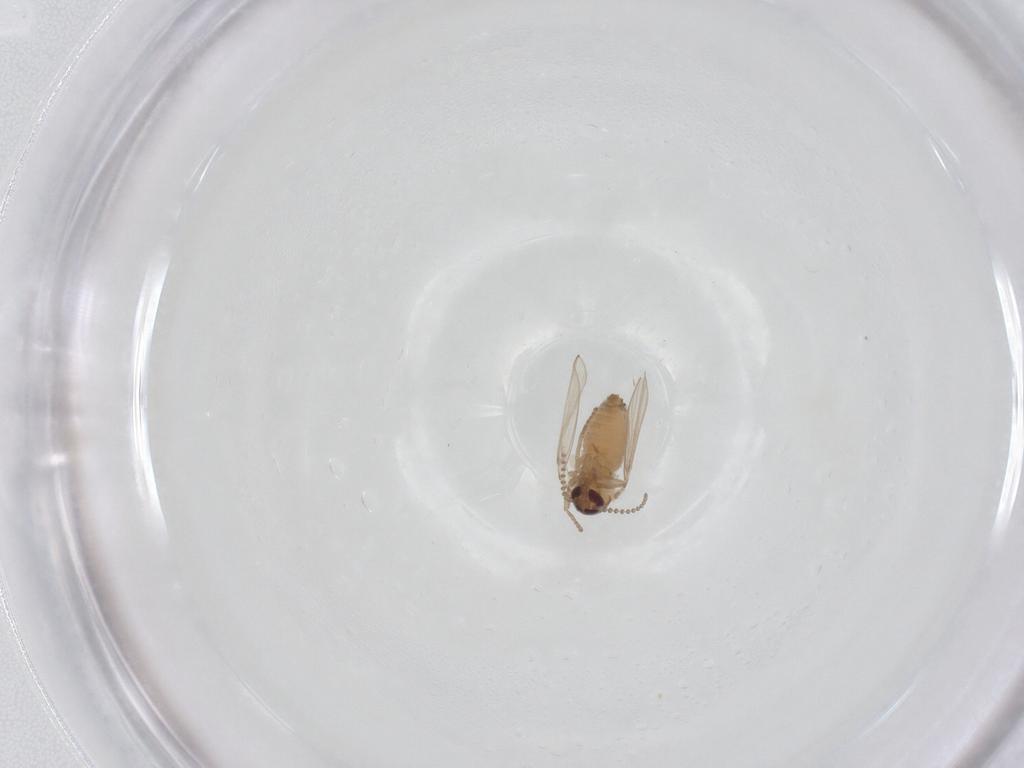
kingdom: Animalia
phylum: Arthropoda
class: Insecta
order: Diptera
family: Psychodidae
